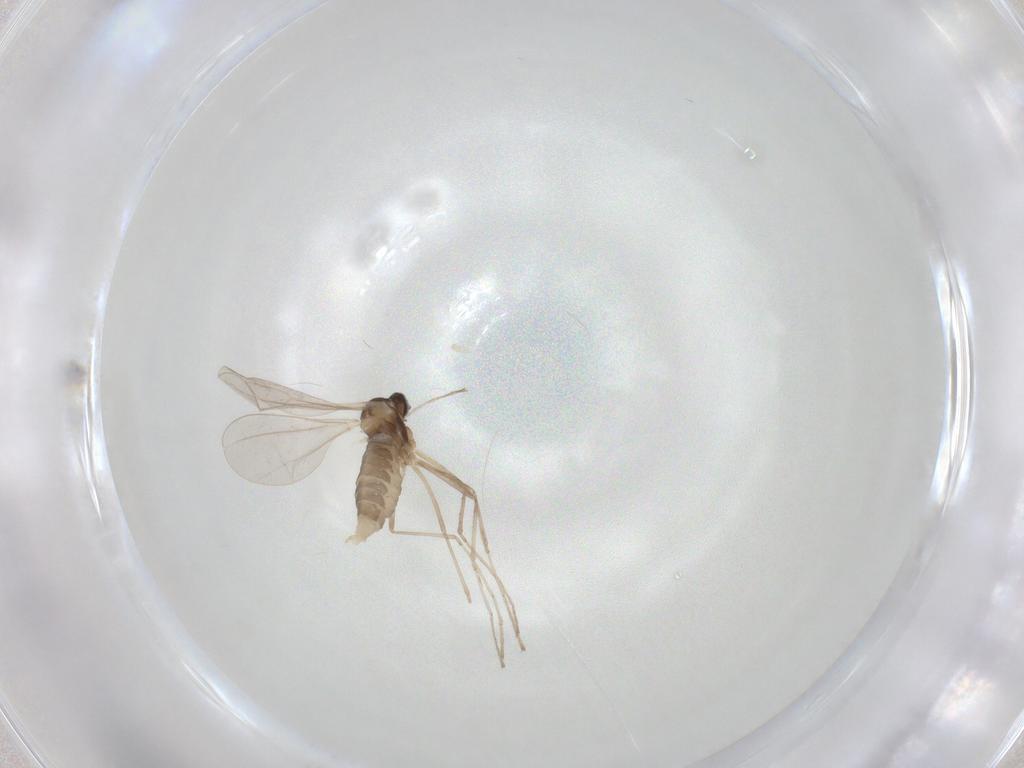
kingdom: Animalia
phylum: Arthropoda
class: Insecta
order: Diptera
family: Cecidomyiidae
